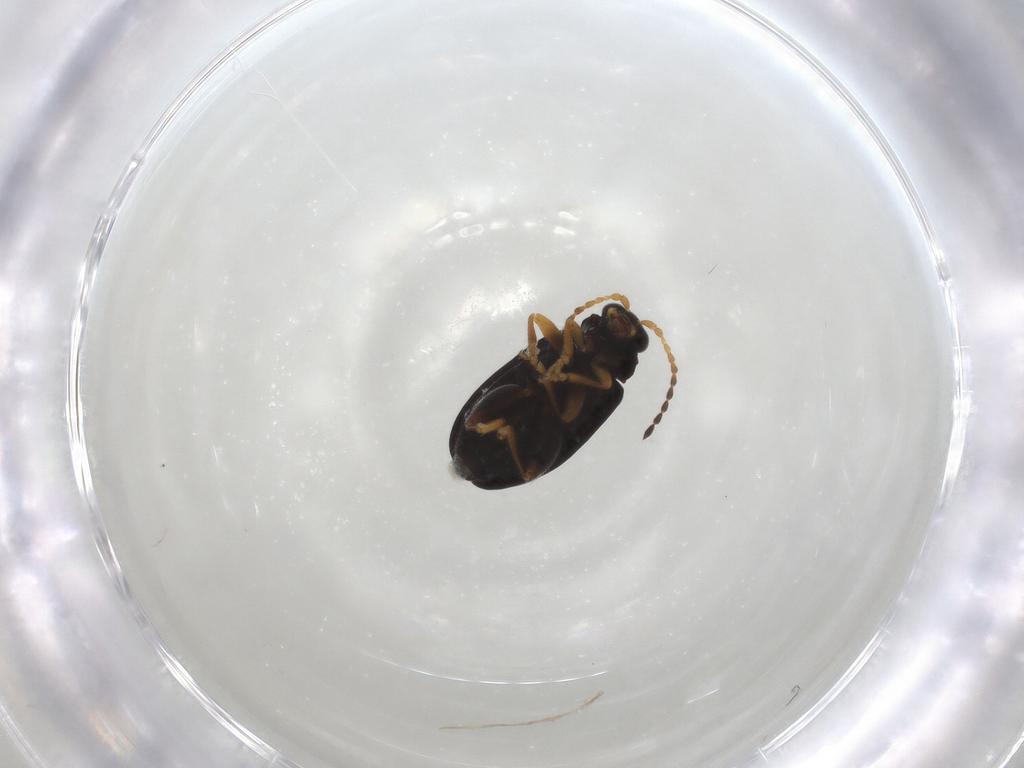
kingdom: Animalia
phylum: Arthropoda
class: Insecta
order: Coleoptera
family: Chrysomelidae
